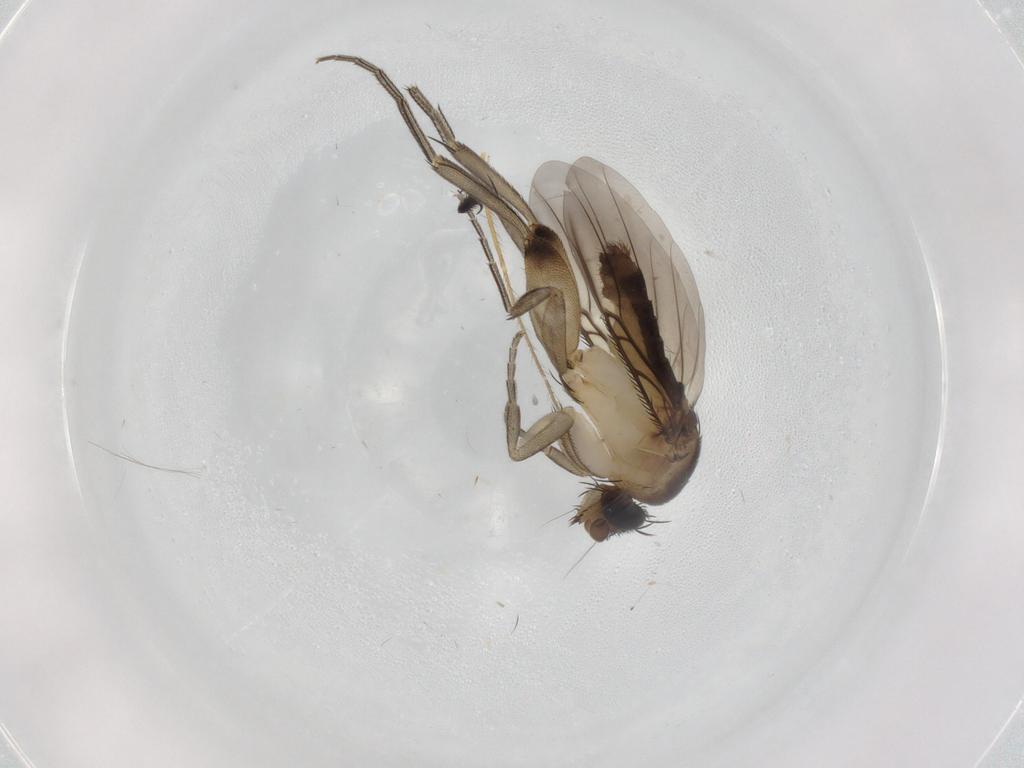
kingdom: Animalia
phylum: Arthropoda
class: Insecta
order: Diptera
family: Phoridae
